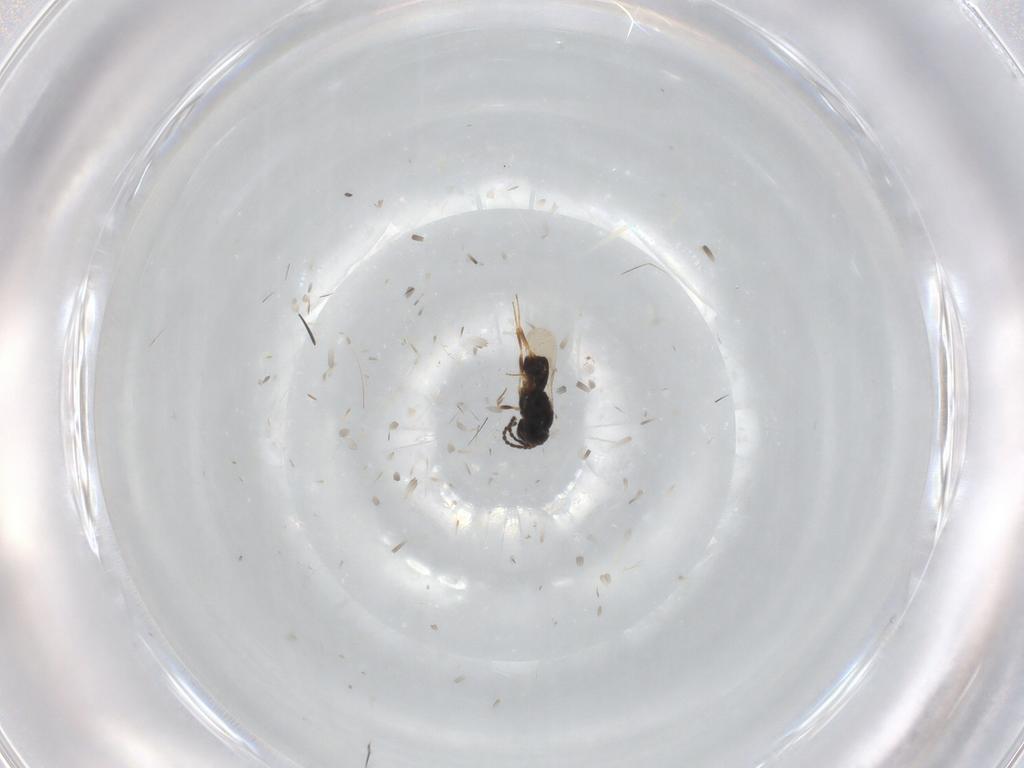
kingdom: Animalia
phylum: Arthropoda
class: Insecta
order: Hymenoptera
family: Scelionidae
